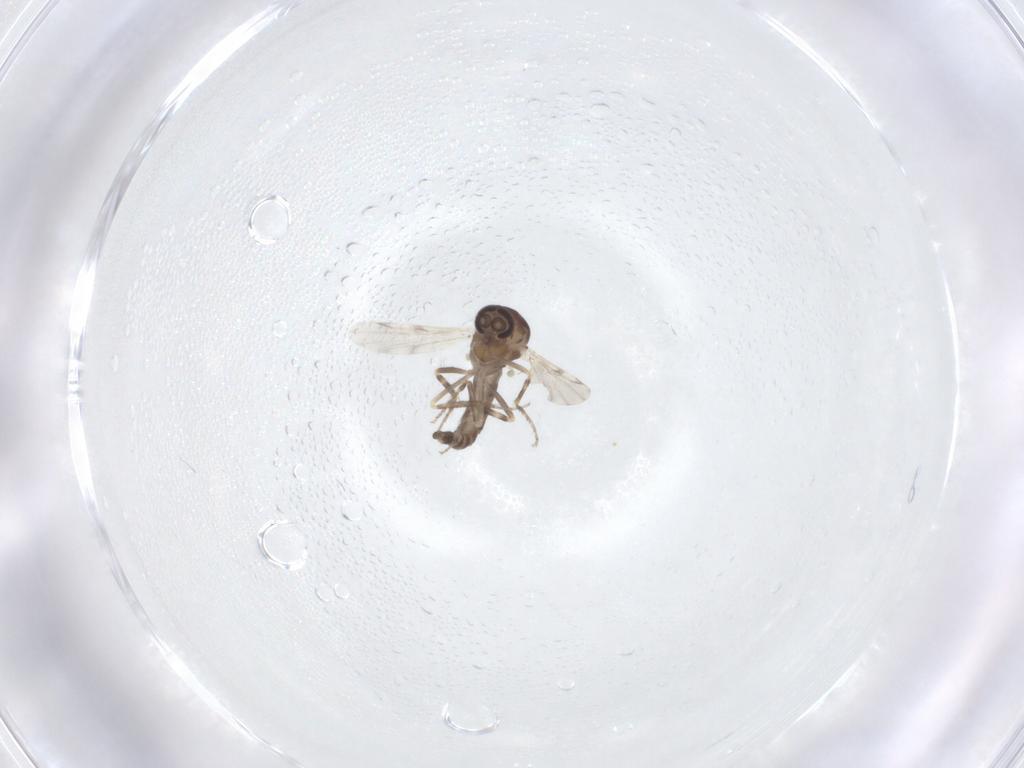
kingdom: Animalia
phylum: Arthropoda
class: Insecta
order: Diptera
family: Ceratopogonidae
